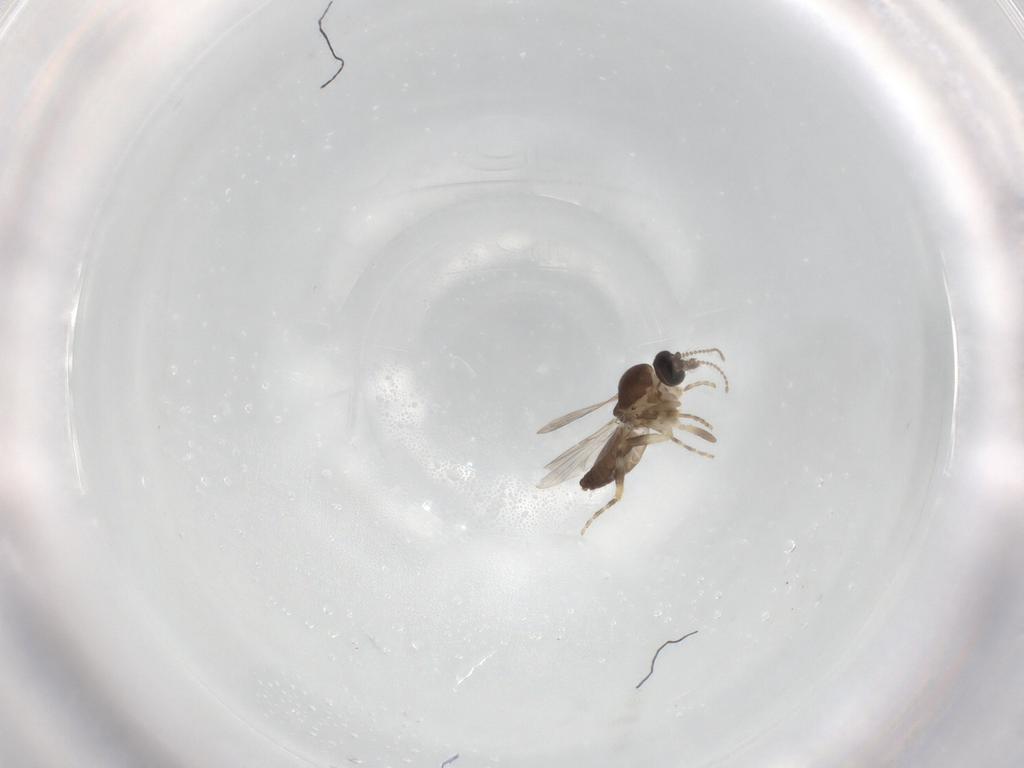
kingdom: Animalia
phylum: Arthropoda
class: Insecta
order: Diptera
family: Ceratopogonidae
